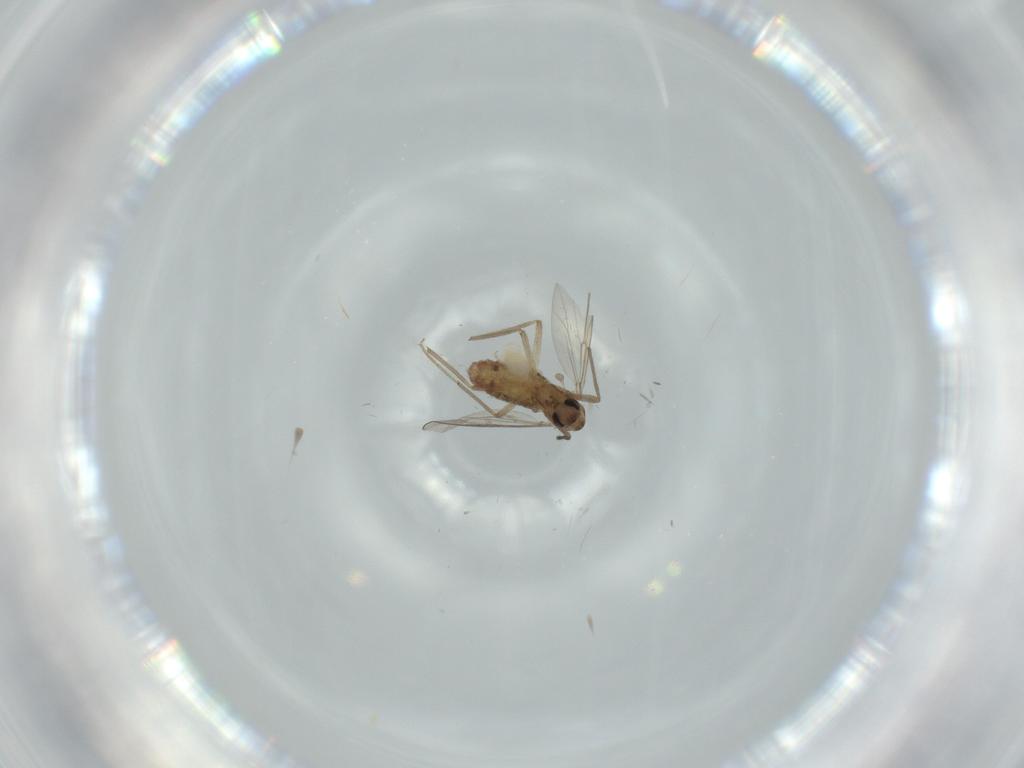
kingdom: Animalia
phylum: Arthropoda
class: Insecta
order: Diptera
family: Chironomidae
